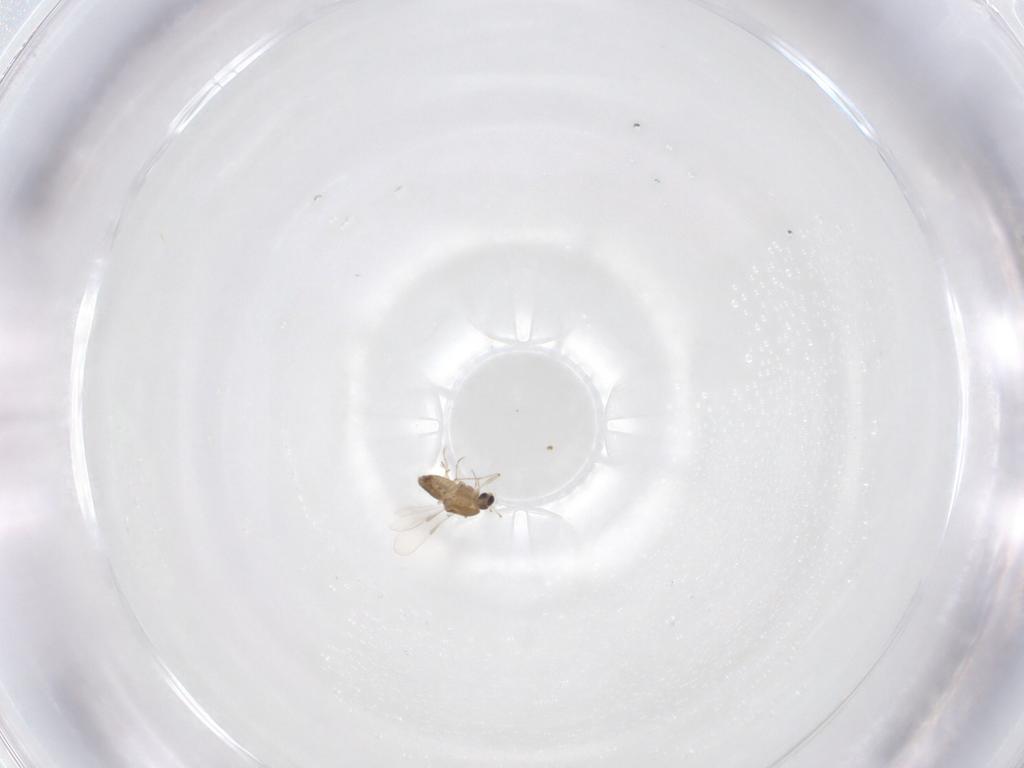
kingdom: Animalia
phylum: Arthropoda
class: Insecta
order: Diptera
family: Chironomidae
